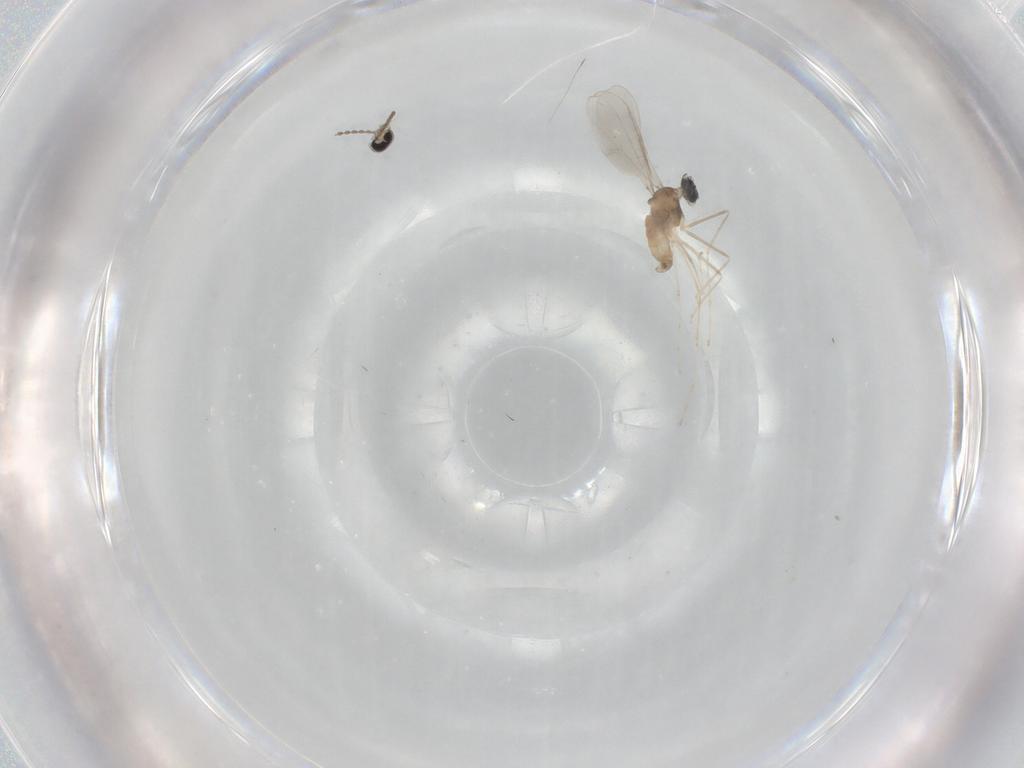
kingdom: Animalia
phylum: Arthropoda
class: Insecta
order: Diptera
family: Cecidomyiidae
